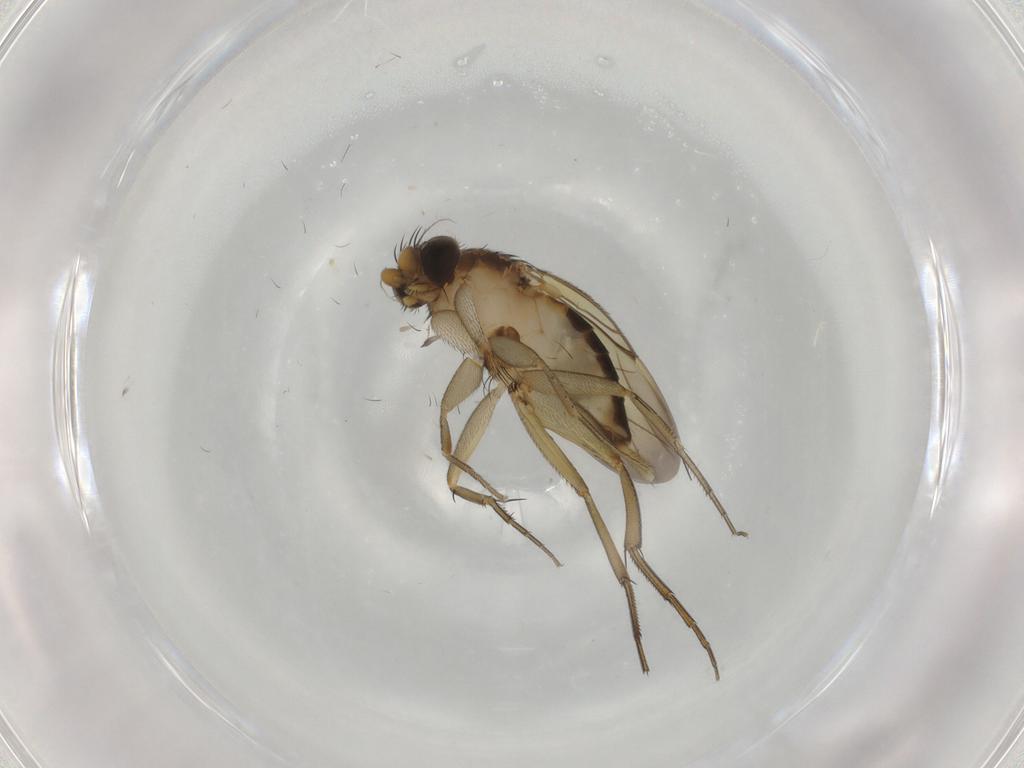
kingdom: Animalia
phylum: Arthropoda
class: Insecta
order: Diptera
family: Phoridae
